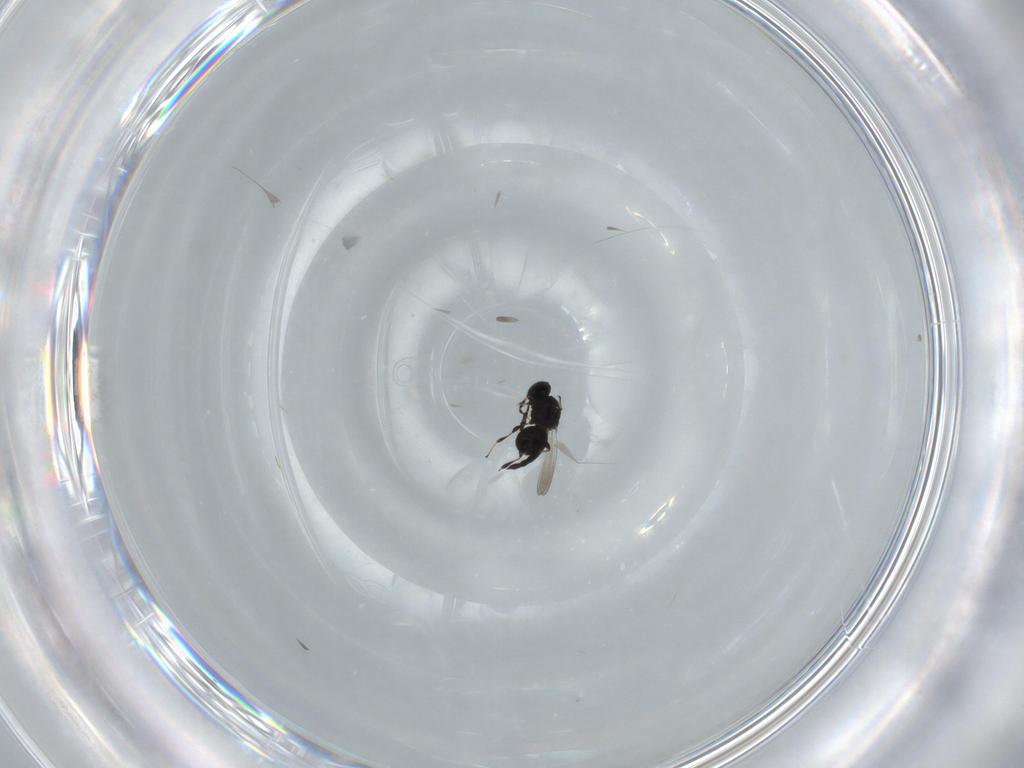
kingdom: Animalia
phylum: Arthropoda
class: Insecta
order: Hymenoptera
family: Platygastridae
